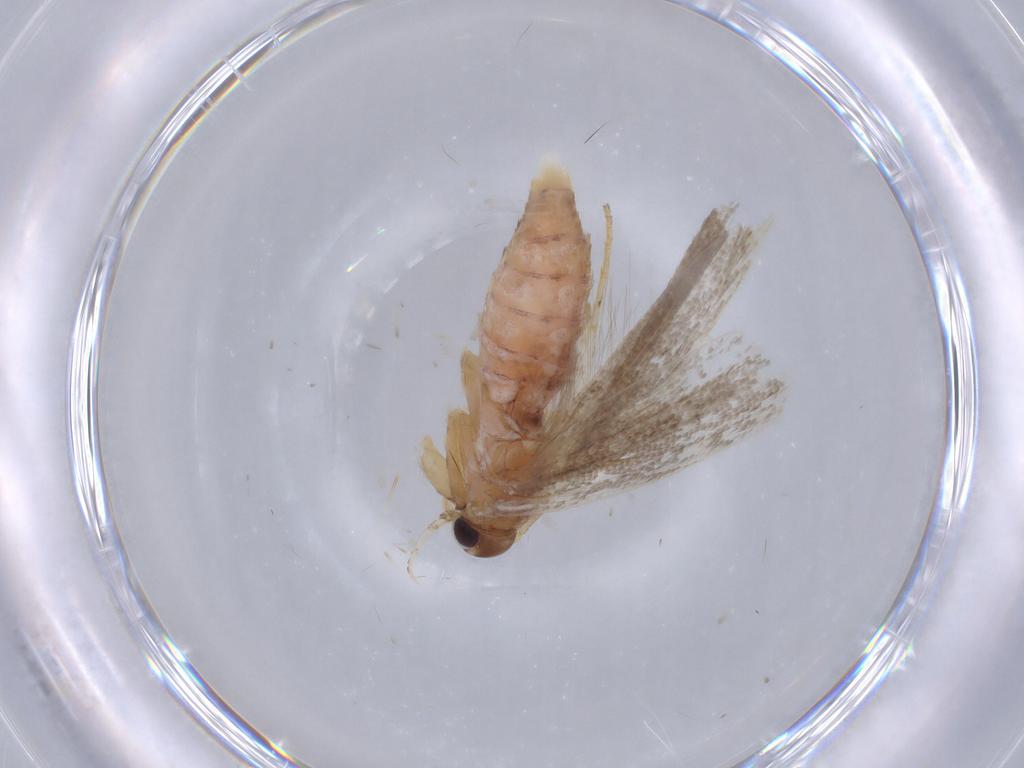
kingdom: Animalia
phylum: Arthropoda
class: Insecta
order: Lepidoptera
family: Gelechiidae
